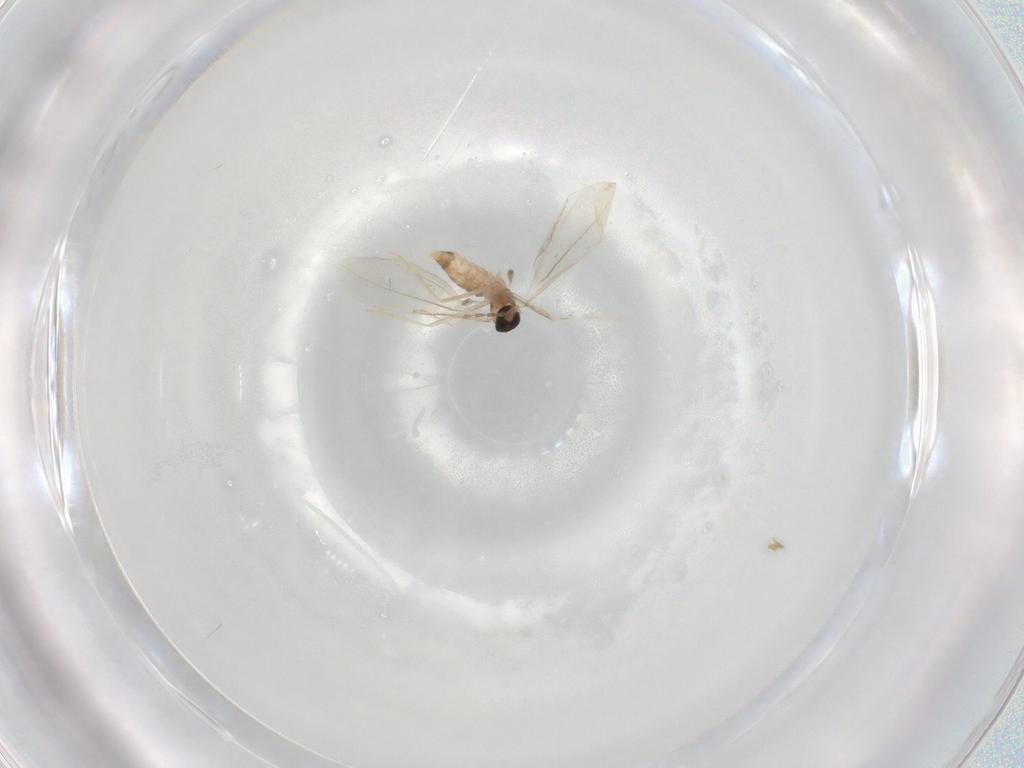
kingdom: Animalia
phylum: Arthropoda
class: Insecta
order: Diptera
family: Cecidomyiidae
